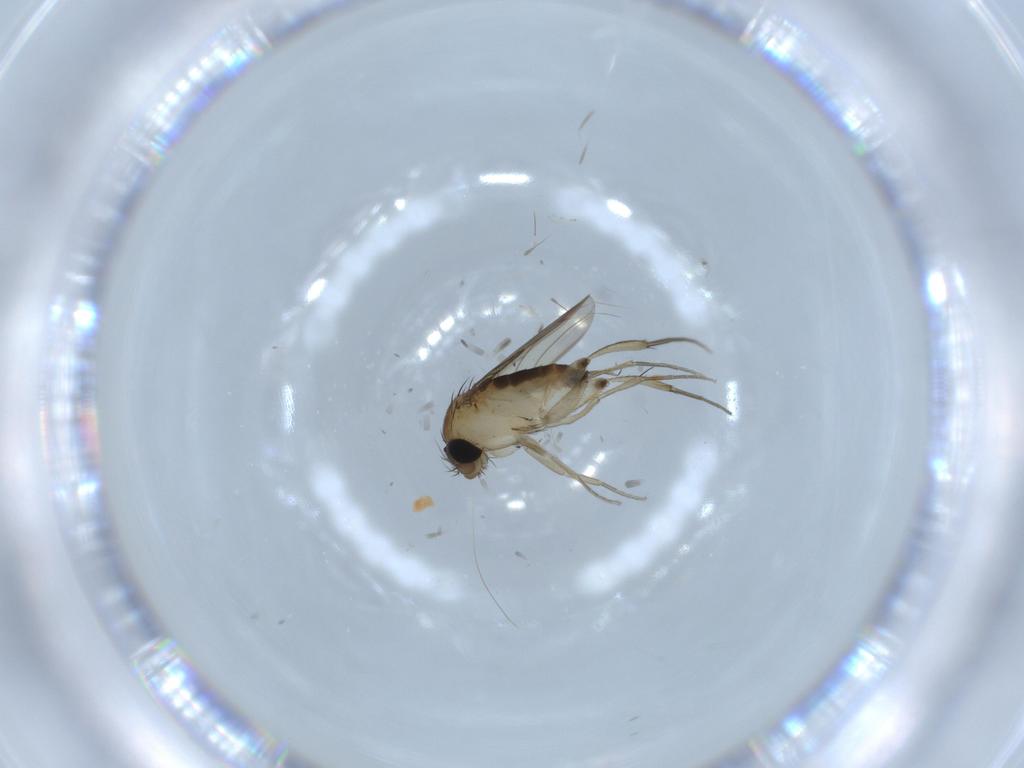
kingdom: Animalia
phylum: Arthropoda
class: Insecta
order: Diptera
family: Phoridae
